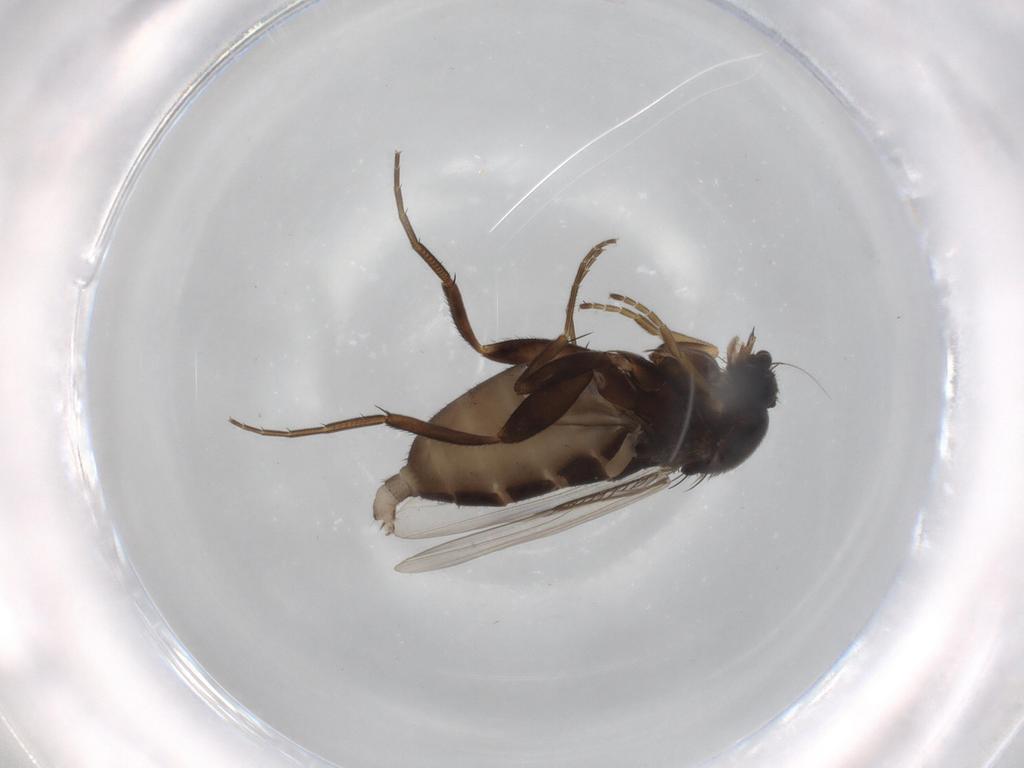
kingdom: Animalia
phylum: Arthropoda
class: Insecta
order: Diptera
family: Phoridae
